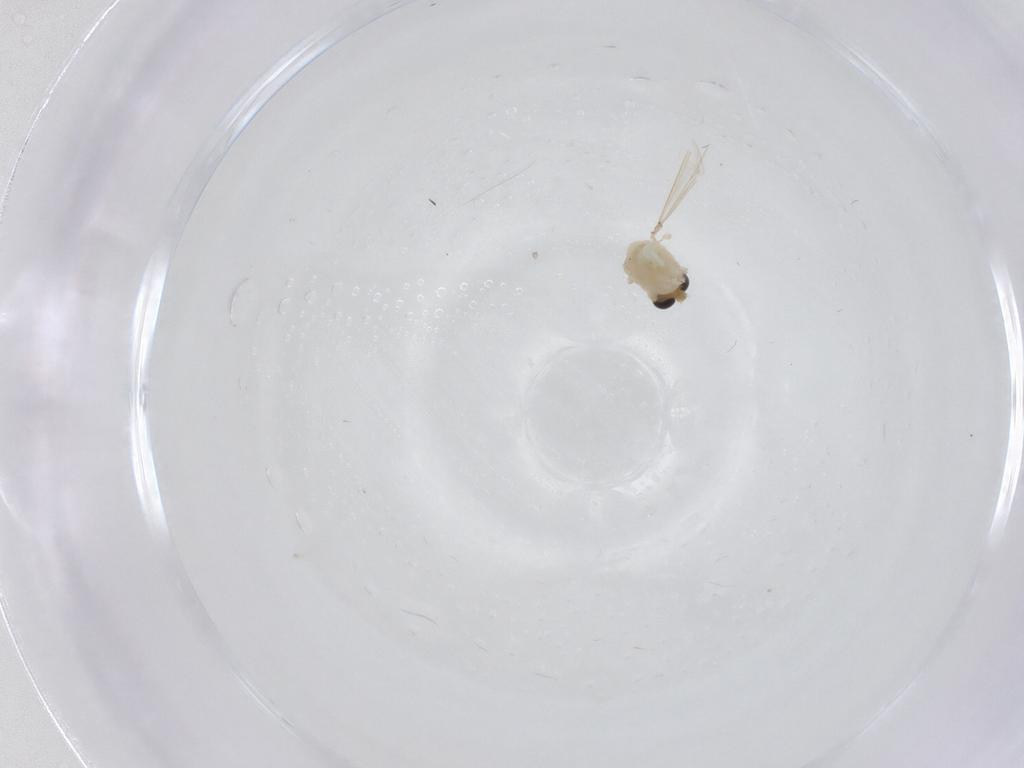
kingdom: Animalia
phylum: Arthropoda
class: Insecta
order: Diptera
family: Chironomidae
